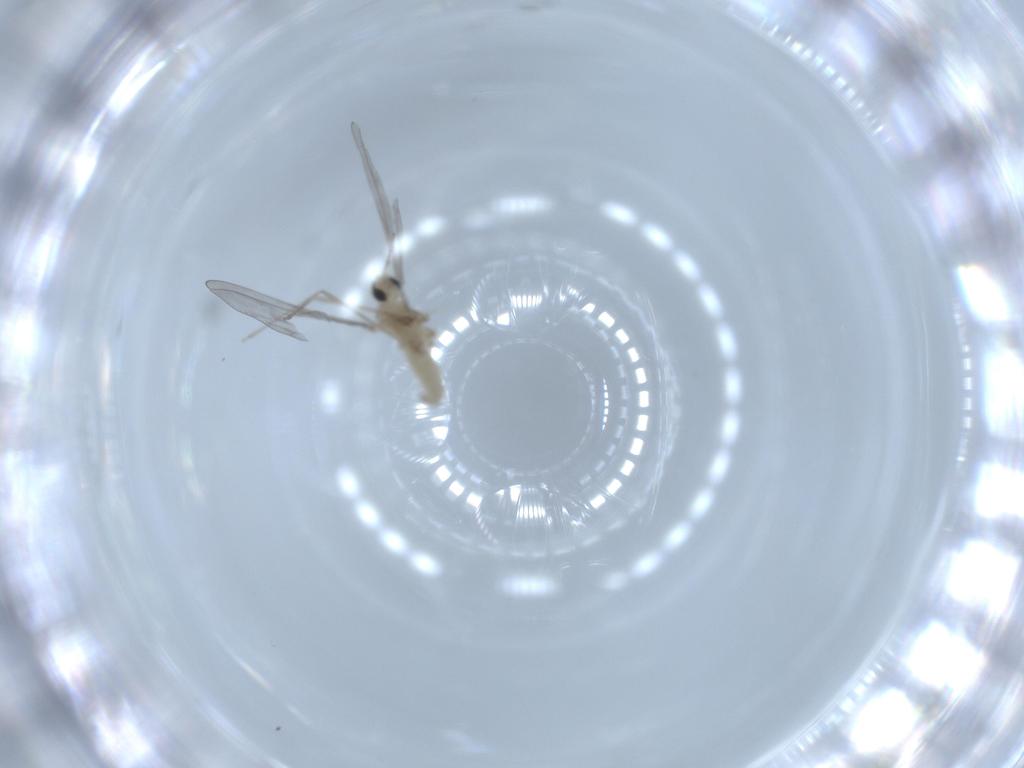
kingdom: Animalia
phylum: Arthropoda
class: Insecta
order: Diptera
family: Cecidomyiidae
